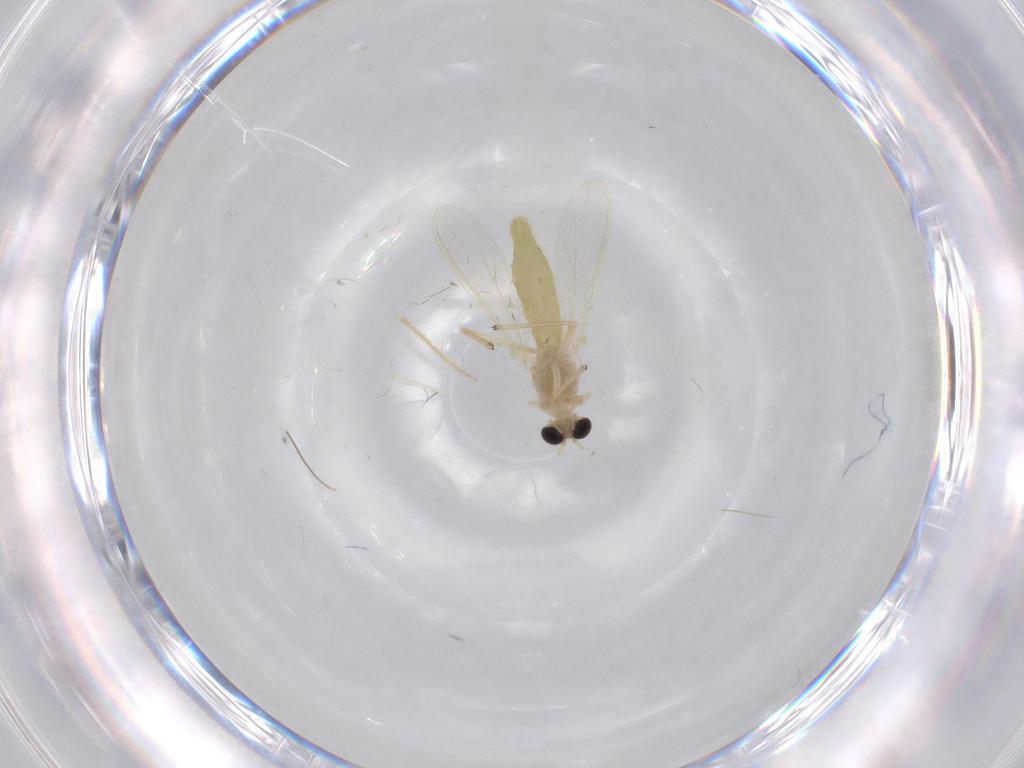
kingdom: Animalia
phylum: Arthropoda
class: Insecta
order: Diptera
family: Chironomidae
